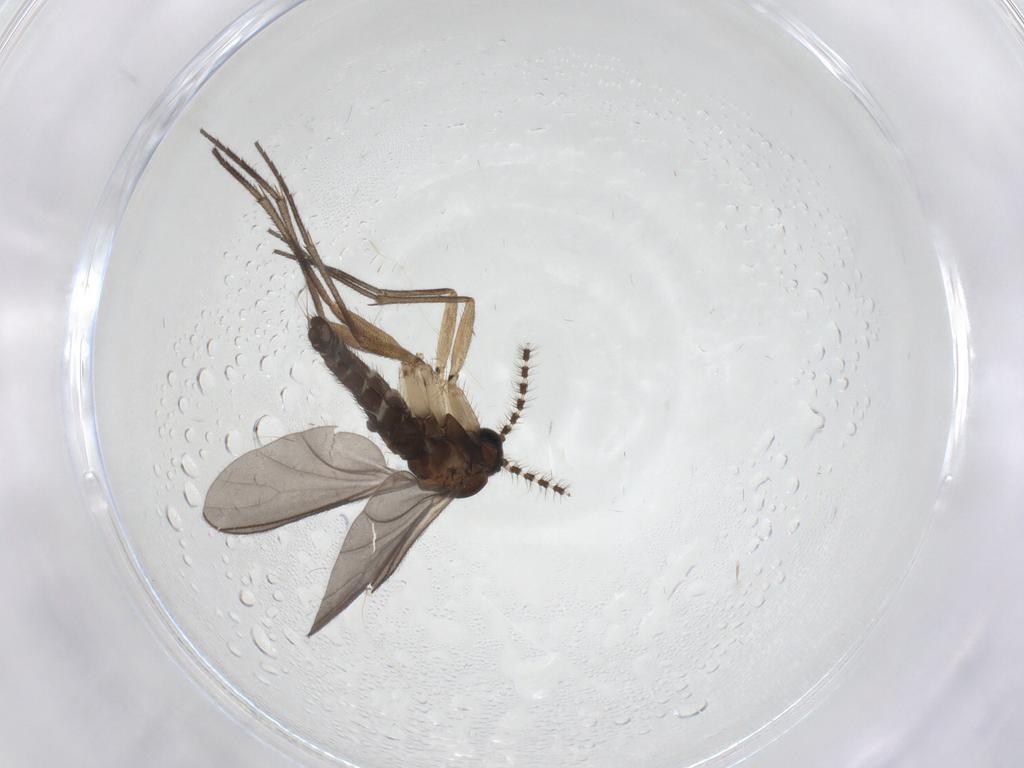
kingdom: Animalia
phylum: Arthropoda
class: Insecta
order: Diptera
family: Sciaridae
